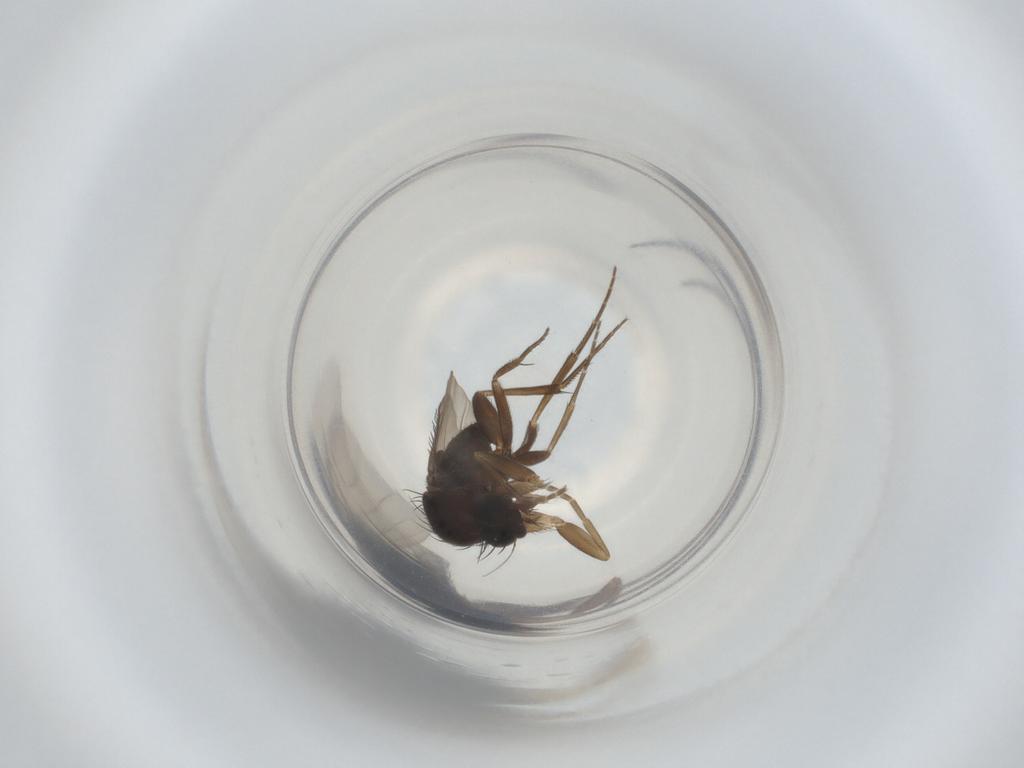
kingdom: Animalia
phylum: Arthropoda
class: Insecta
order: Diptera
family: Phoridae
